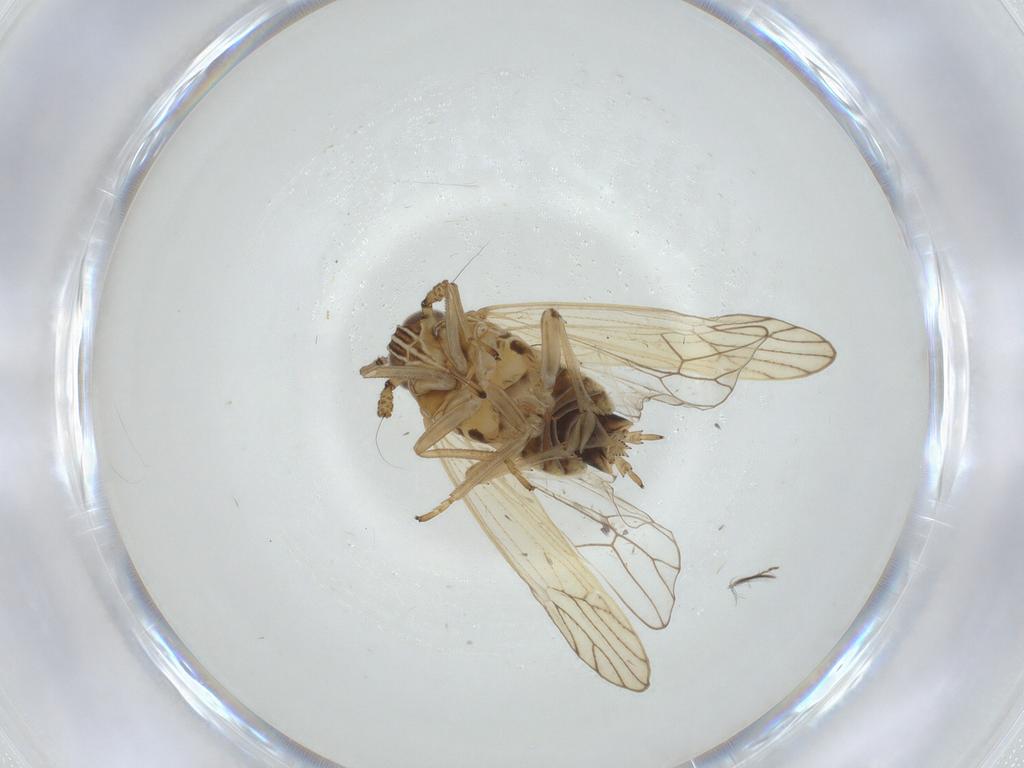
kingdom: Animalia
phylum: Arthropoda
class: Insecta
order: Hemiptera
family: Delphacidae
